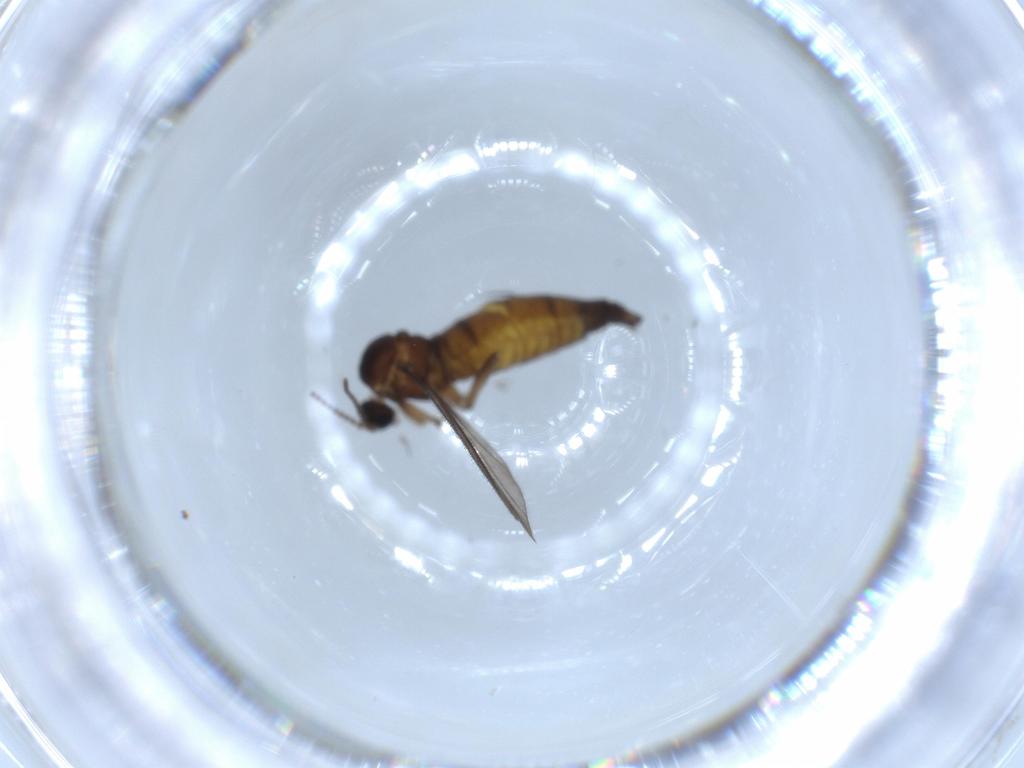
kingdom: Animalia
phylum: Arthropoda
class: Insecta
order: Diptera
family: Sciaridae
